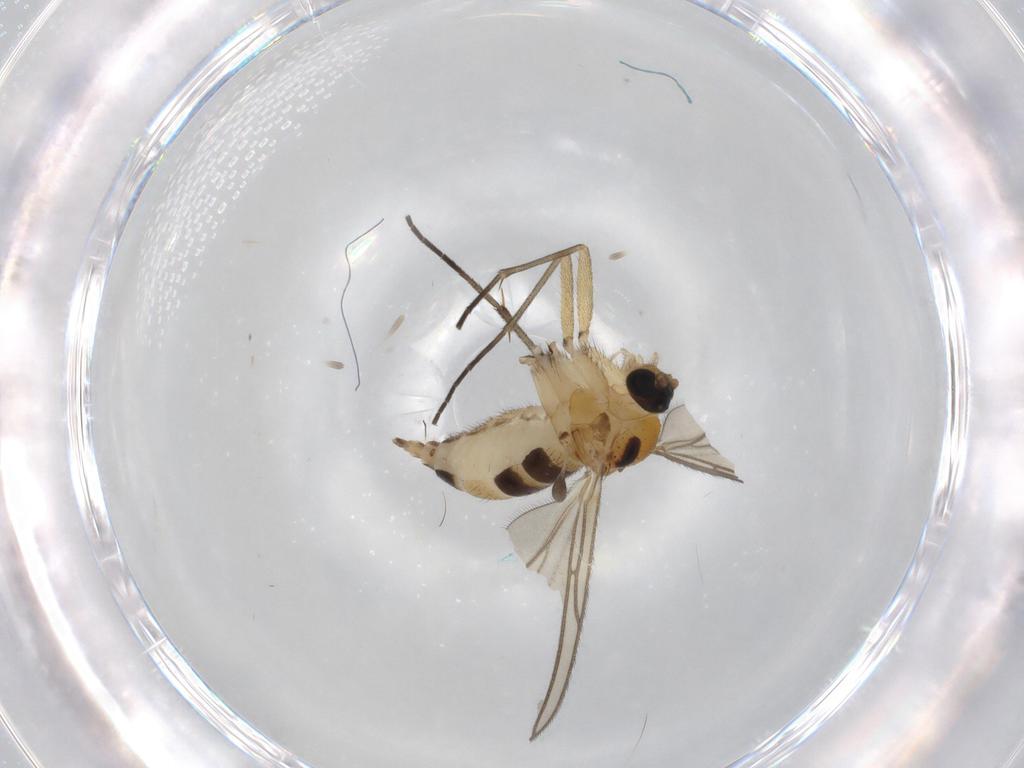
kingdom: Animalia
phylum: Arthropoda
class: Insecta
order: Diptera
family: Sciaridae
